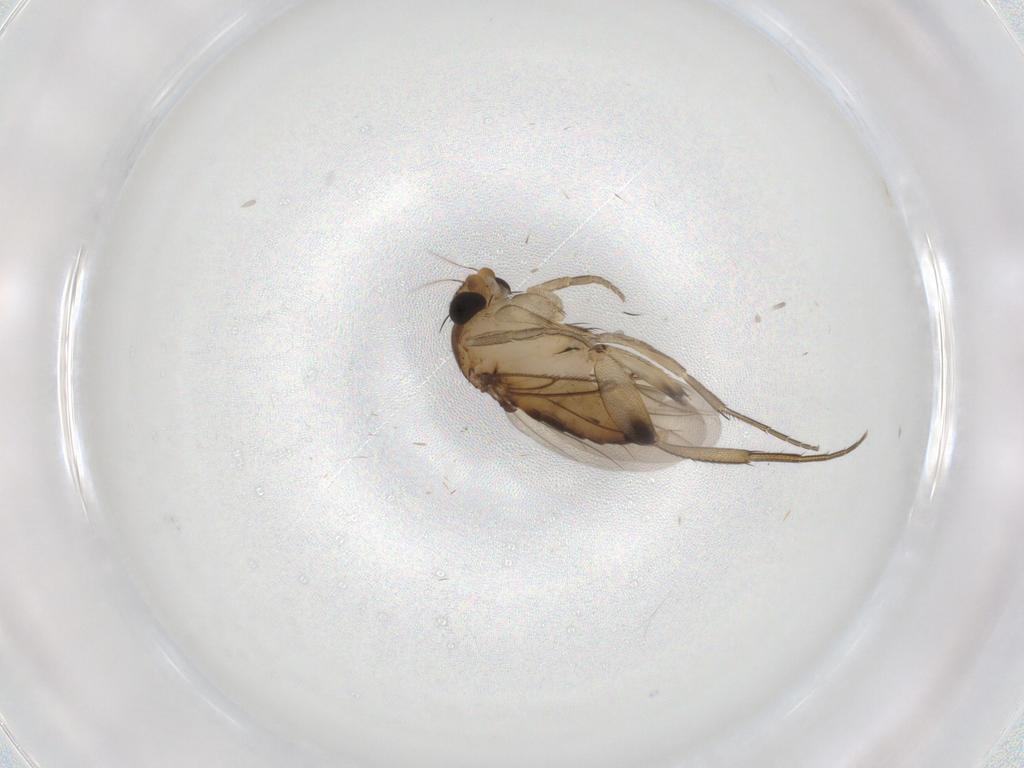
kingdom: Animalia
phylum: Arthropoda
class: Insecta
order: Diptera
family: Phoridae
